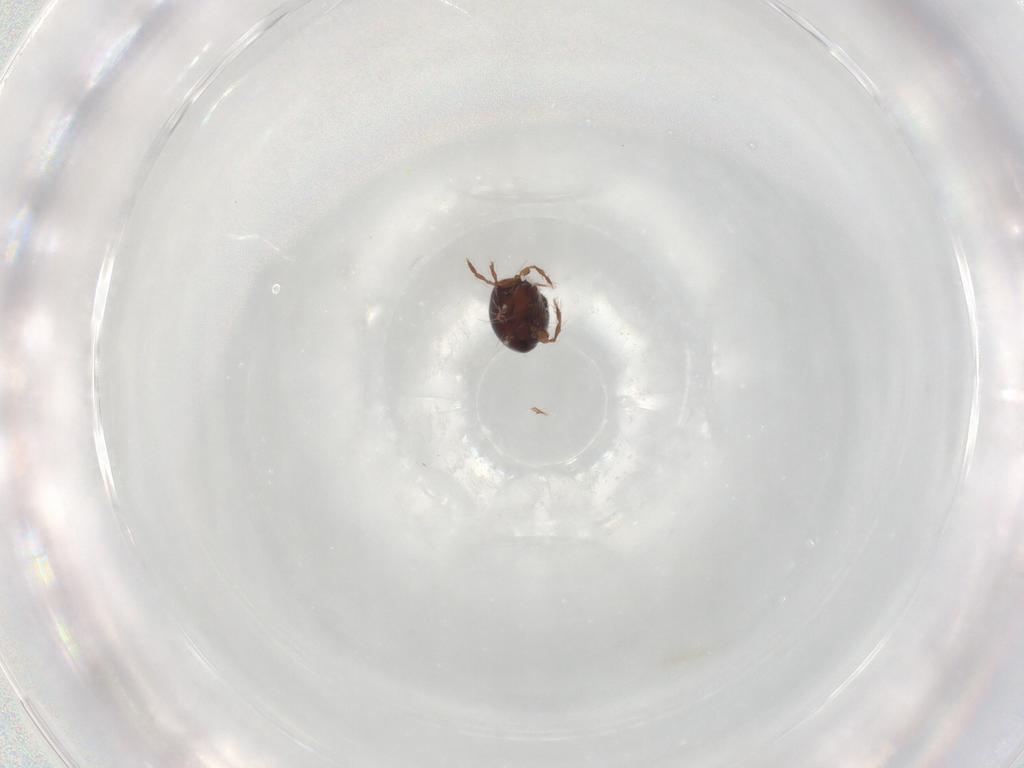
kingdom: Animalia
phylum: Arthropoda
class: Arachnida
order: Sarcoptiformes
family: Ceratoppiidae
